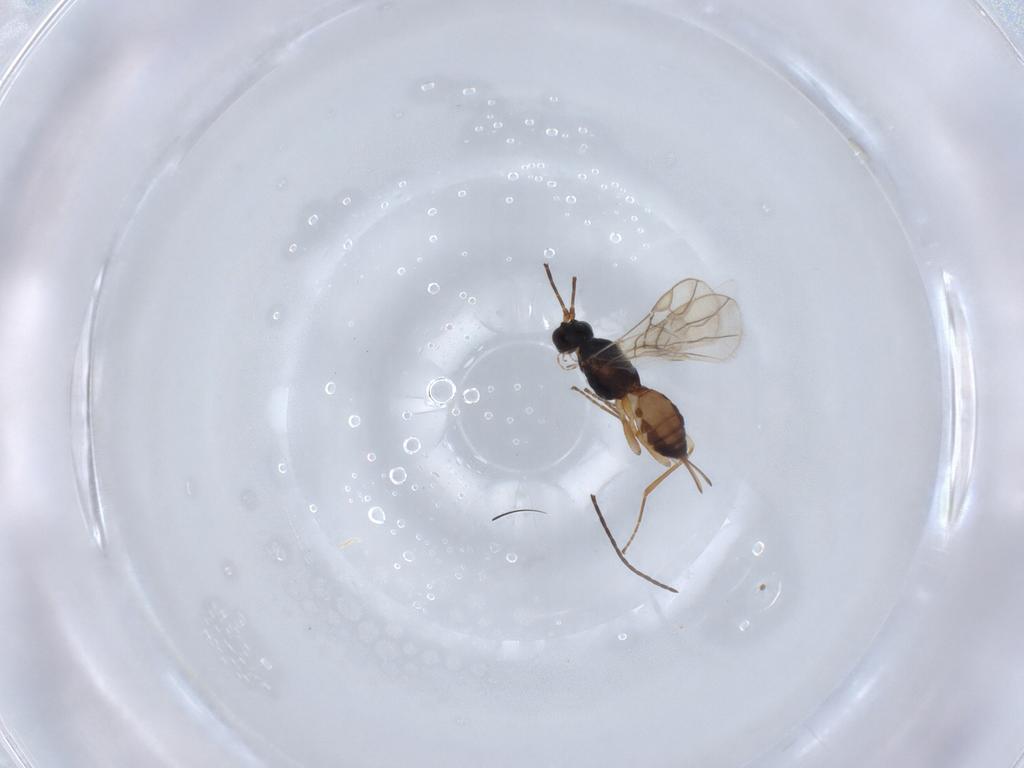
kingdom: Animalia
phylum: Arthropoda
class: Insecta
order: Hymenoptera
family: Braconidae
